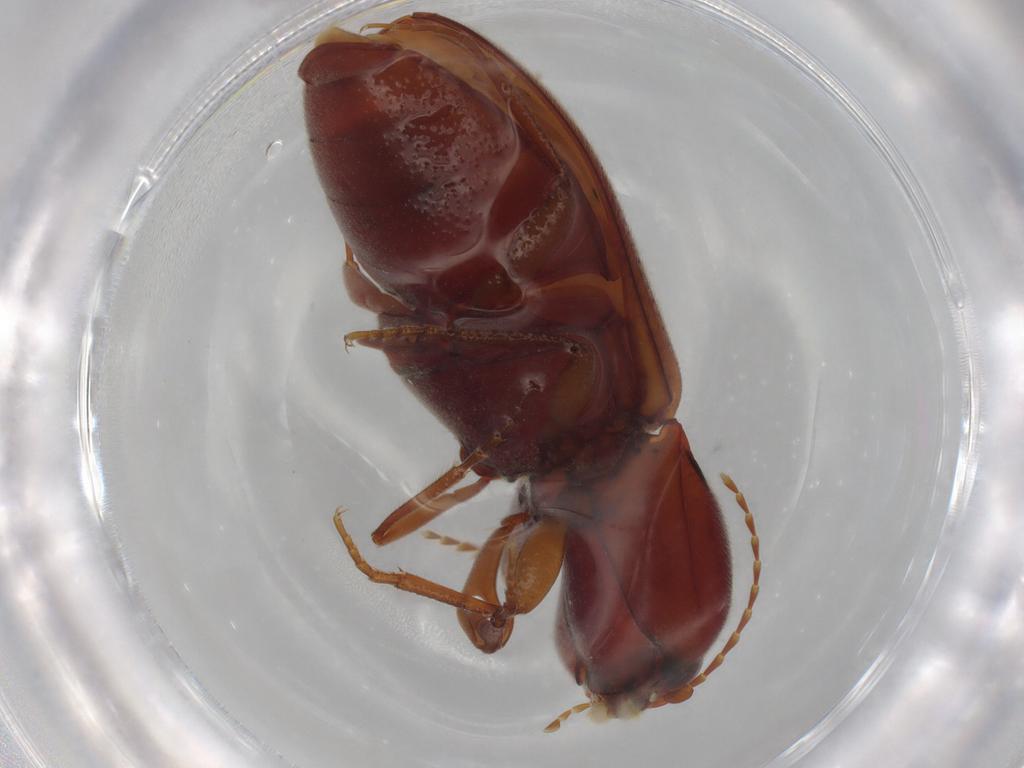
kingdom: Animalia
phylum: Arthropoda
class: Insecta
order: Coleoptera
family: Elateridae
